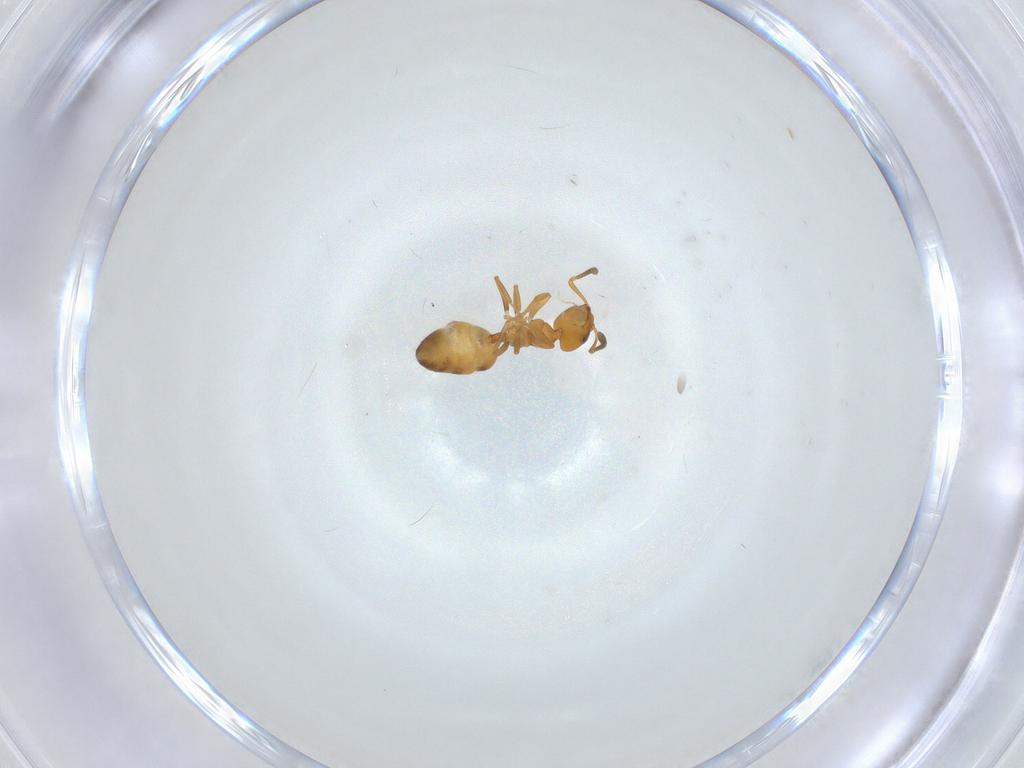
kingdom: Animalia
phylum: Arthropoda
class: Insecta
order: Hymenoptera
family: Formicidae
